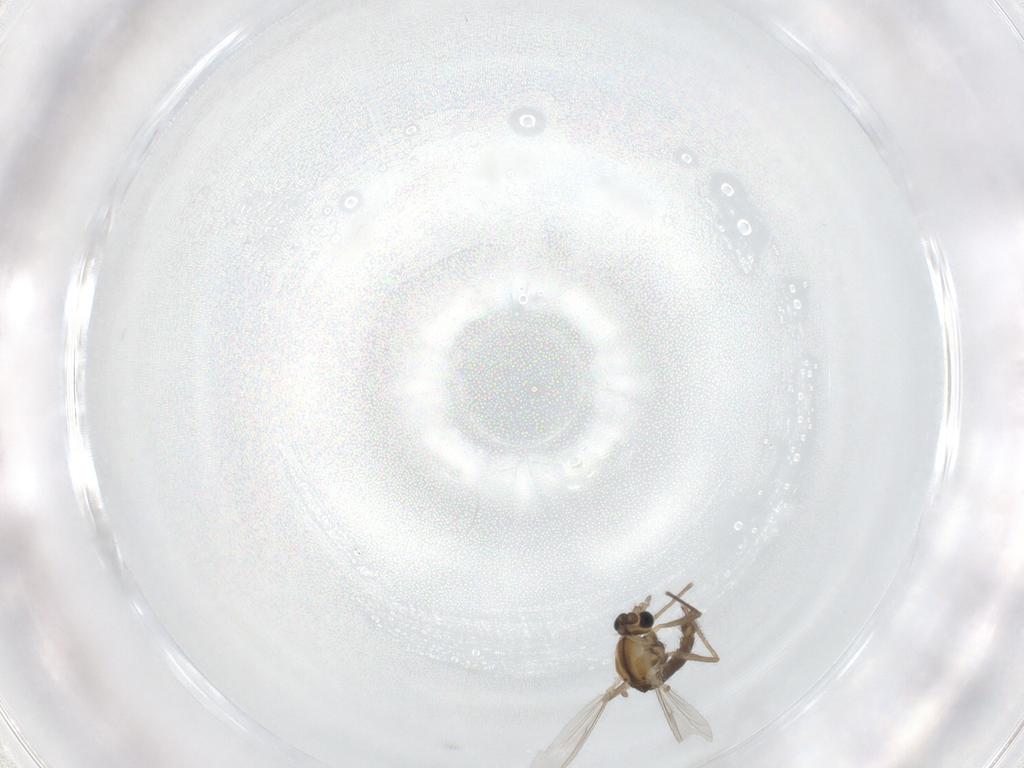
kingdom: Animalia
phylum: Arthropoda
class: Insecta
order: Diptera
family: Chironomidae
